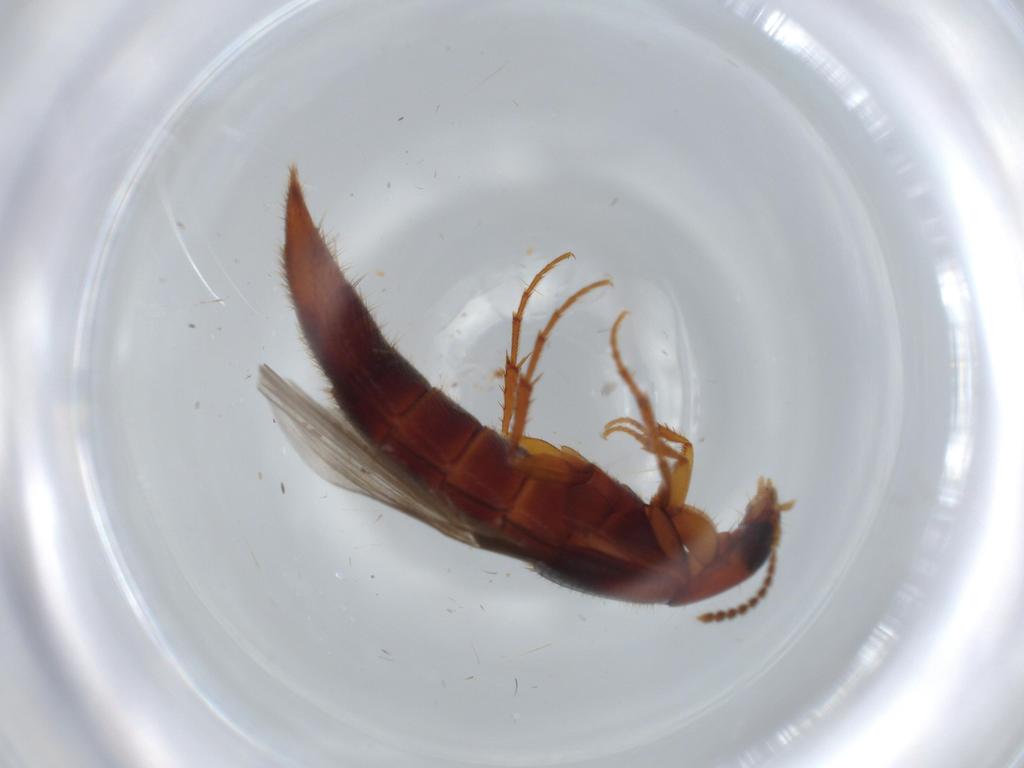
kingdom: Animalia
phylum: Arthropoda
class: Insecta
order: Coleoptera
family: Staphylinidae
